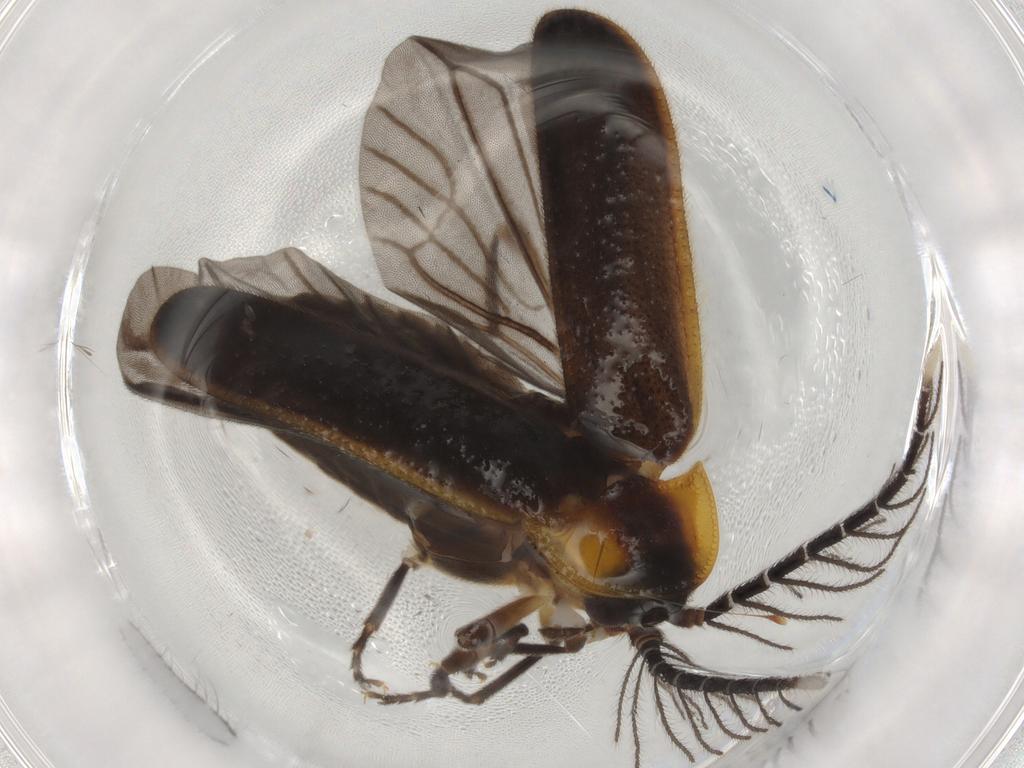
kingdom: Animalia
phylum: Arthropoda
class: Insecta
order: Coleoptera
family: Lampyridae
